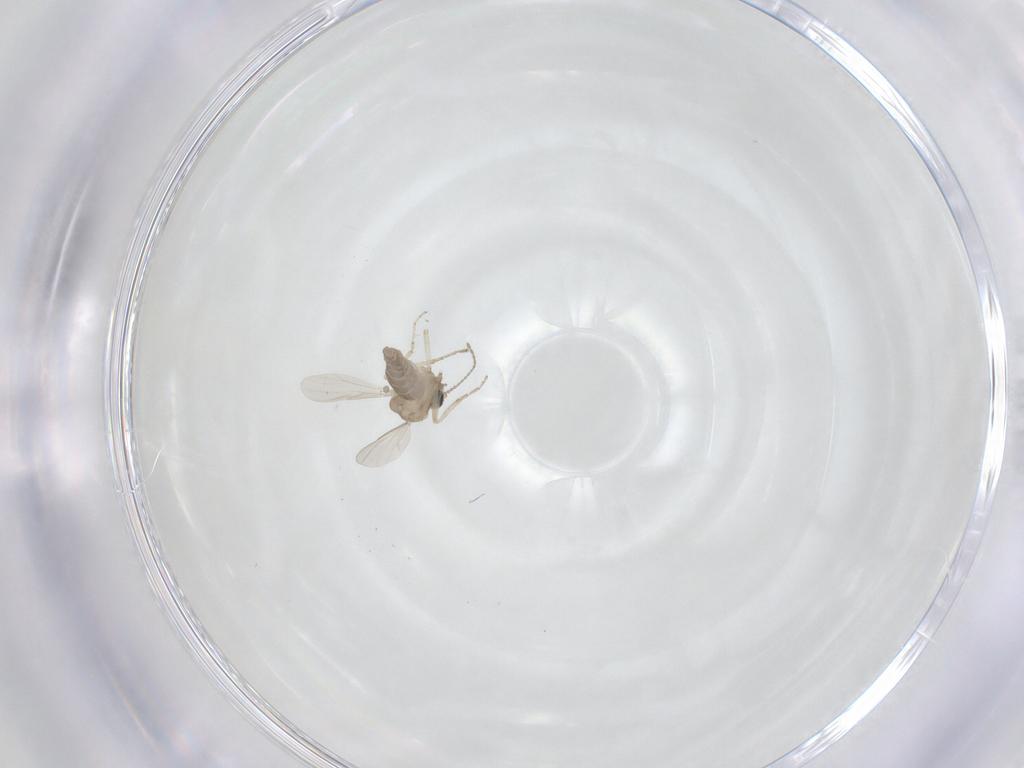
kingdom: Animalia
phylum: Arthropoda
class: Insecta
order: Diptera
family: Ceratopogonidae
